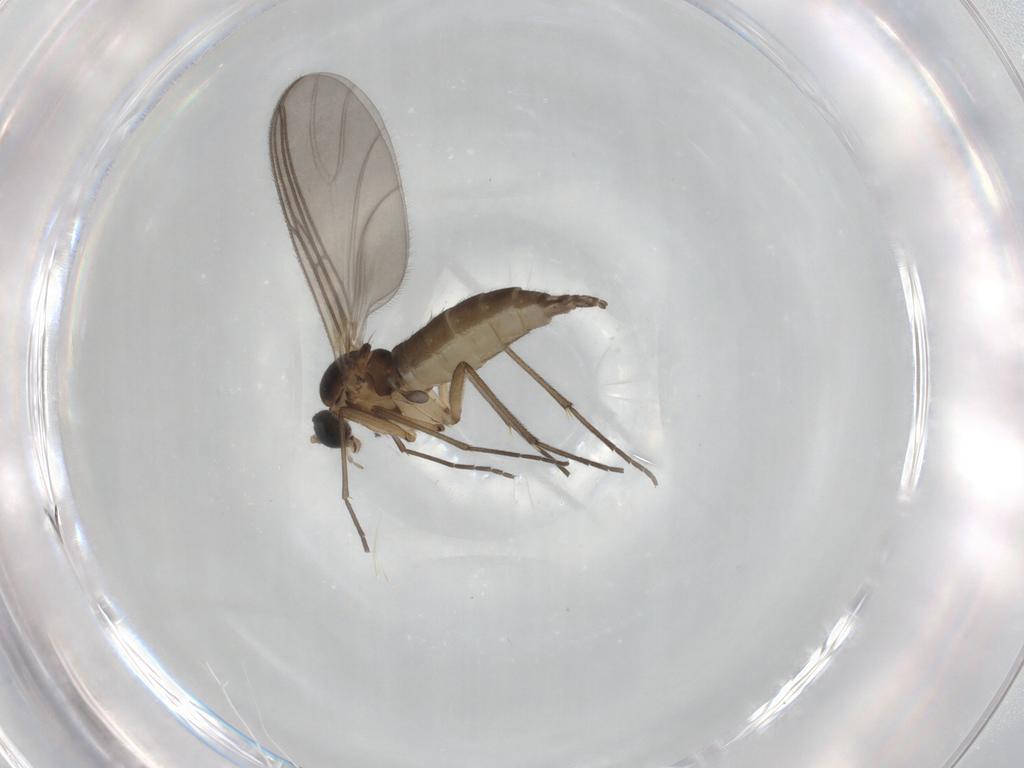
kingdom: Animalia
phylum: Arthropoda
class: Insecta
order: Diptera
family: Sciaridae
